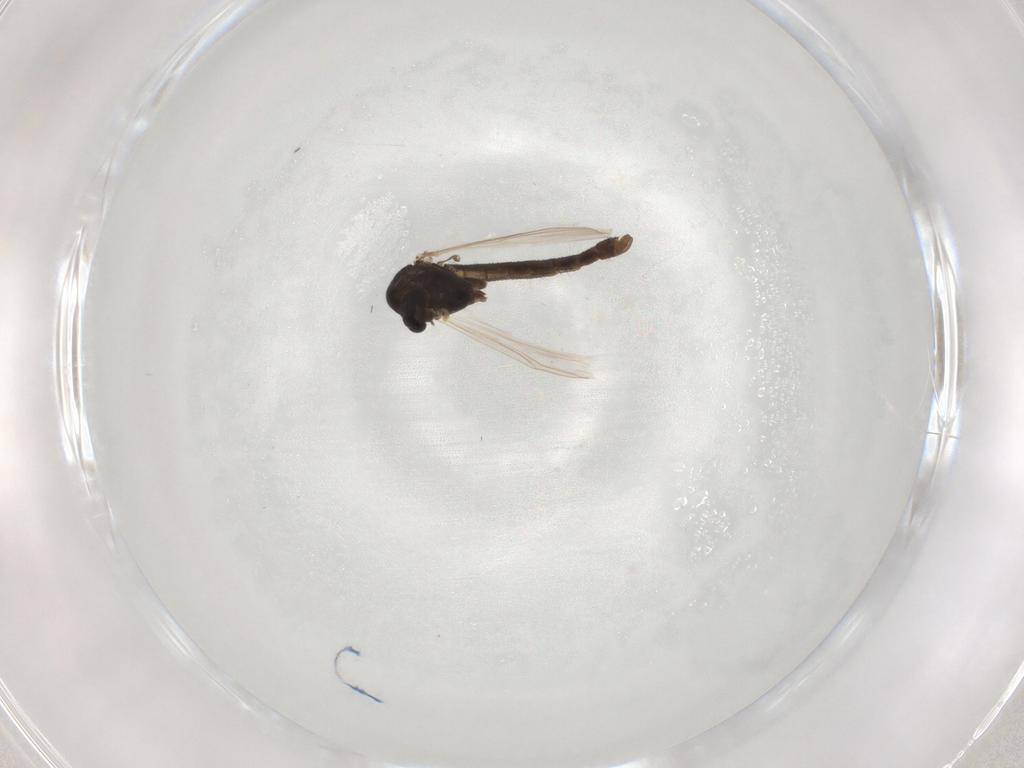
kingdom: Animalia
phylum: Arthropoda
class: Insecta
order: Diptera
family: Chironomidae
